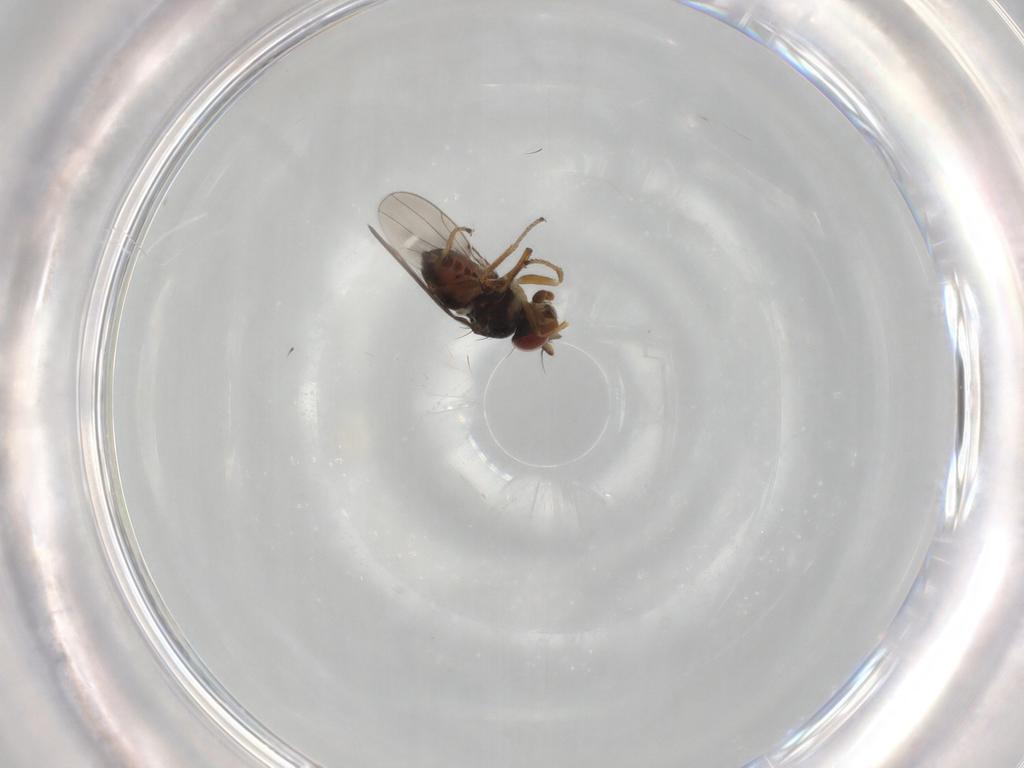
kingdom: Animalia
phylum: Arthropoda
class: Insecta
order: Diptera
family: Ephydridae
